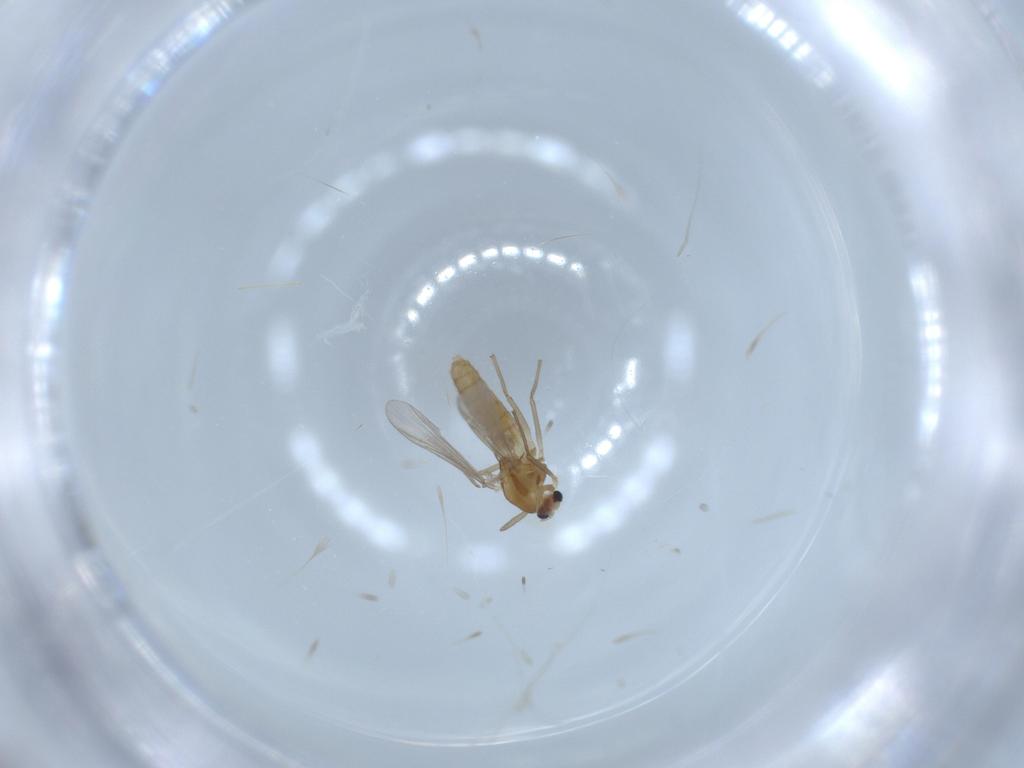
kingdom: Animalia
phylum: Arthropoda
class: Insecta
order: Diptera
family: Chironomidae
